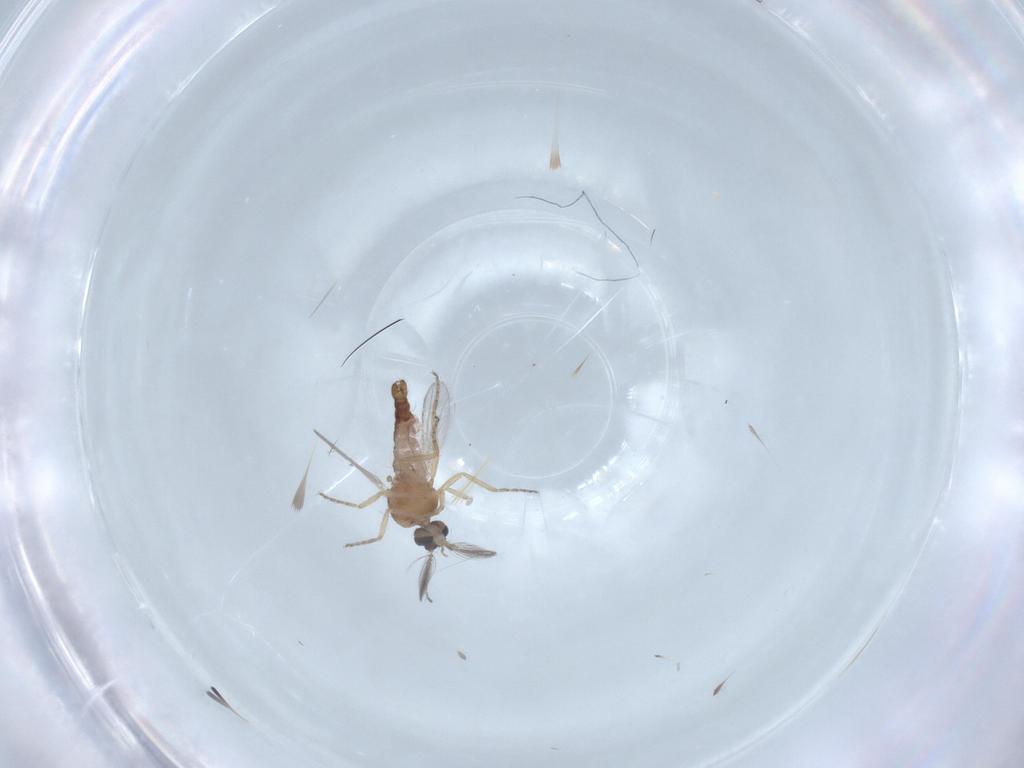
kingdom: Animalia
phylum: Arthropoda
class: Insecta
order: Diptera
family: Ceratopogonidae
